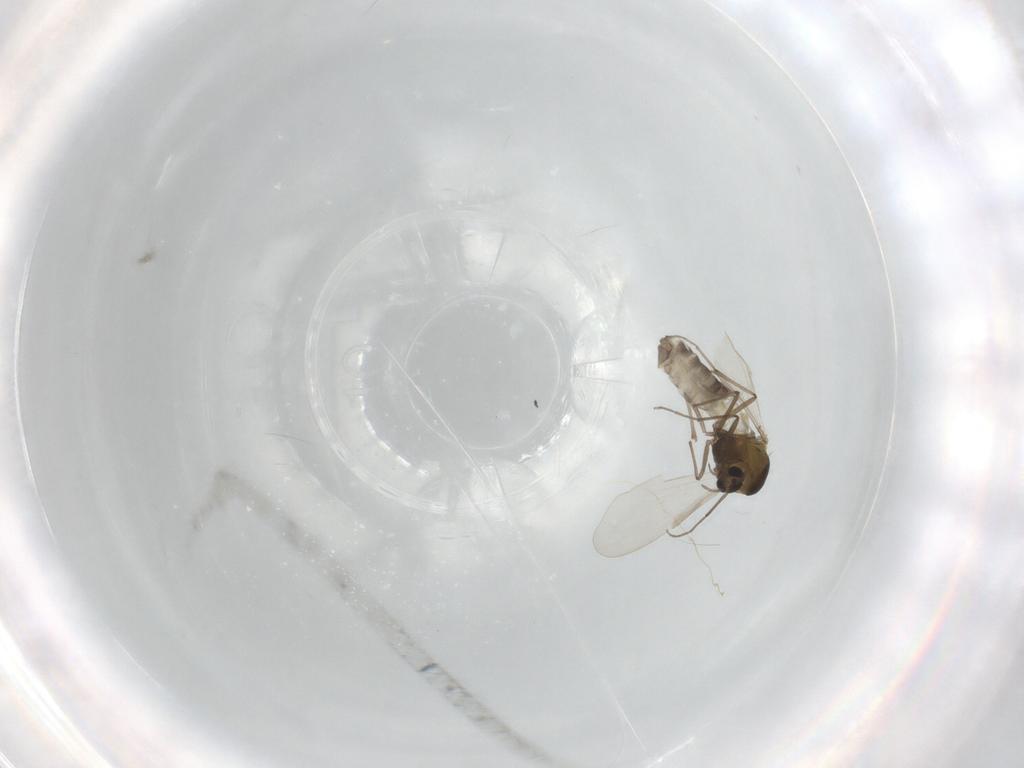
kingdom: Animalia
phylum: Arthropoda
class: Insecta
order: Diptera
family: Chironomidae
